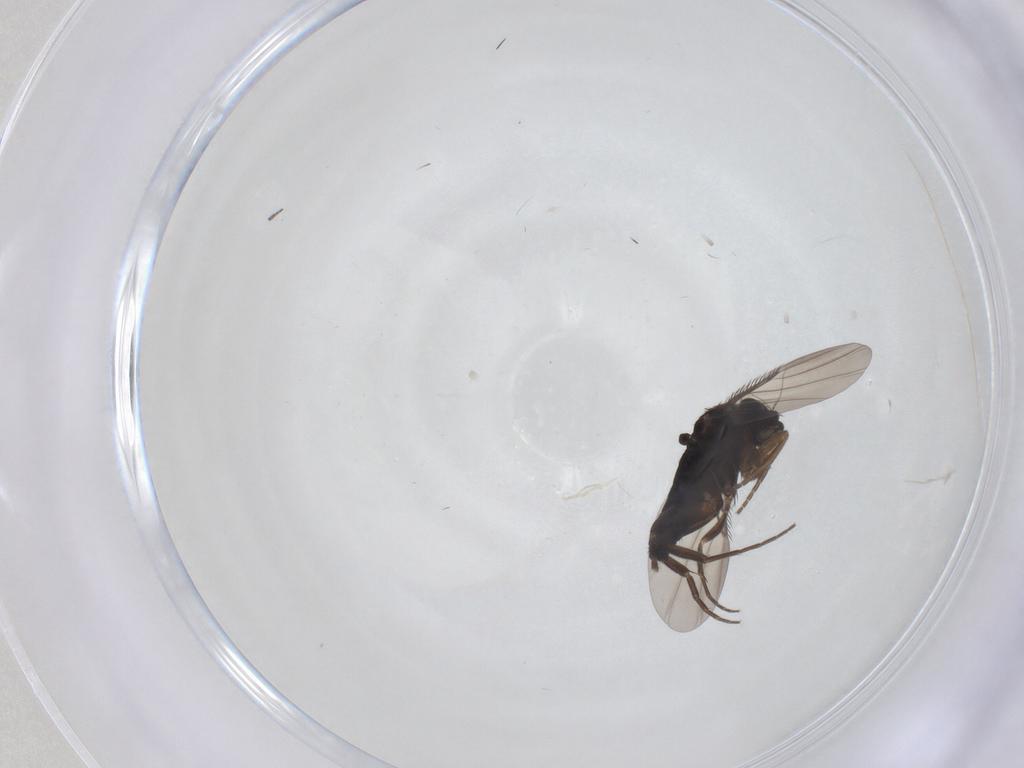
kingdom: Animalia
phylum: Arthropoda
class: Insecta
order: Diptera
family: Phoridae
